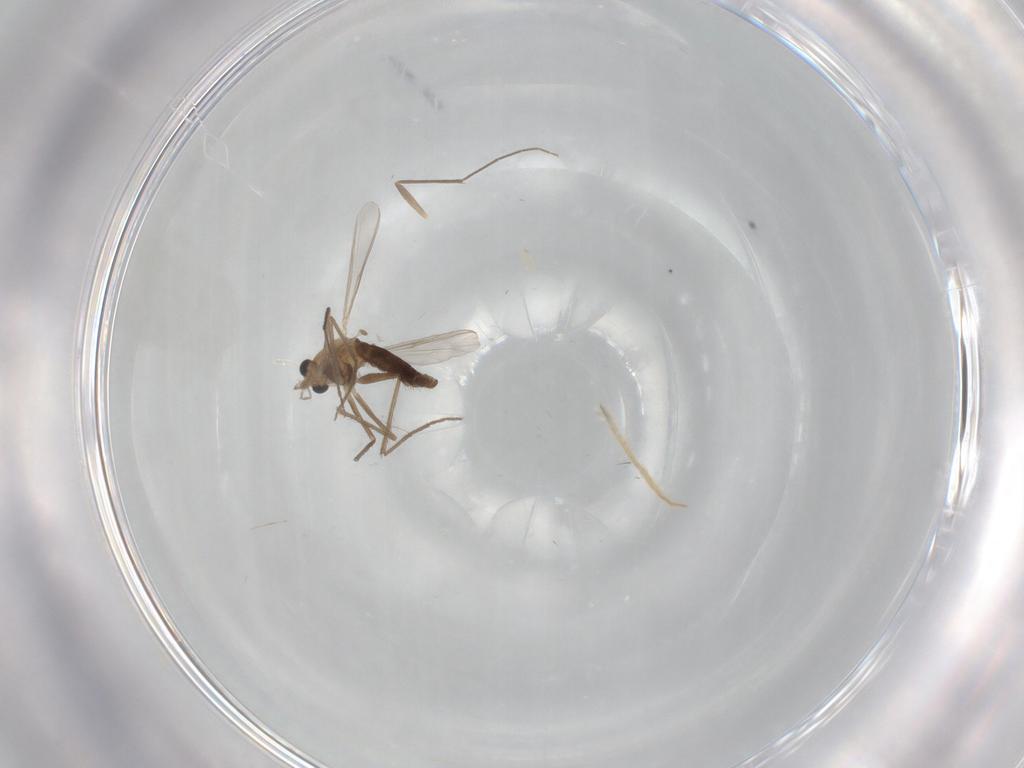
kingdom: Animalia
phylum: Arthropoda
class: Insecta
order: Diptera
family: Chironomidae
